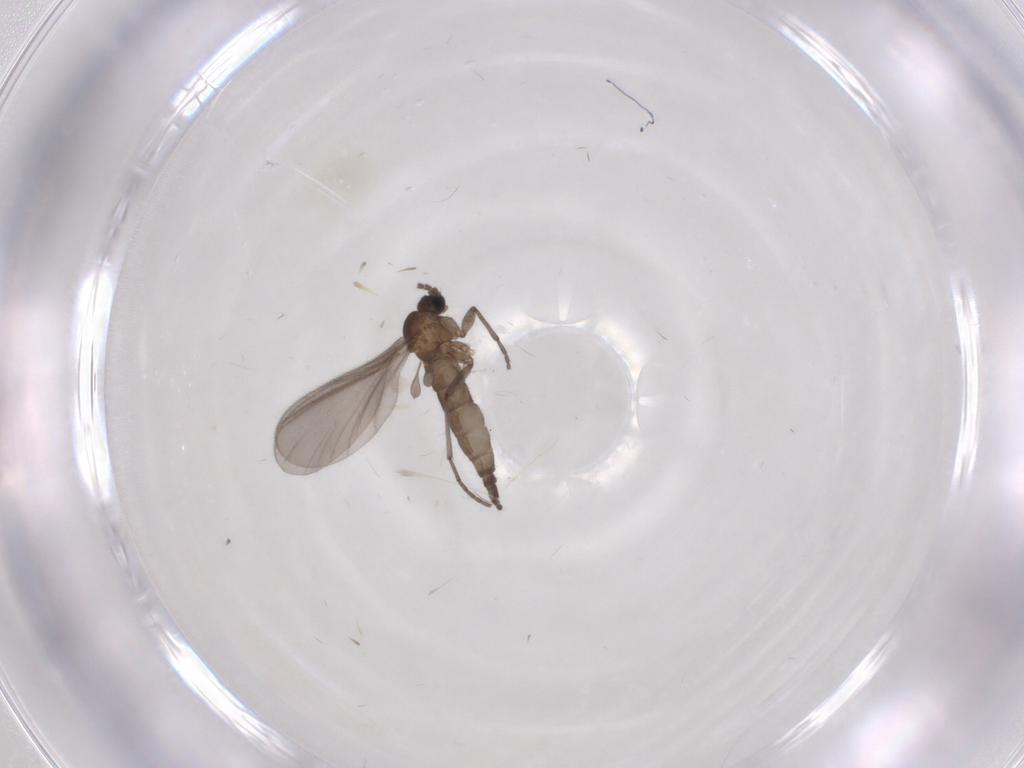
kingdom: Animalia
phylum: Arthropoda
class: Insecta
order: Diptera
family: Sciaridae
